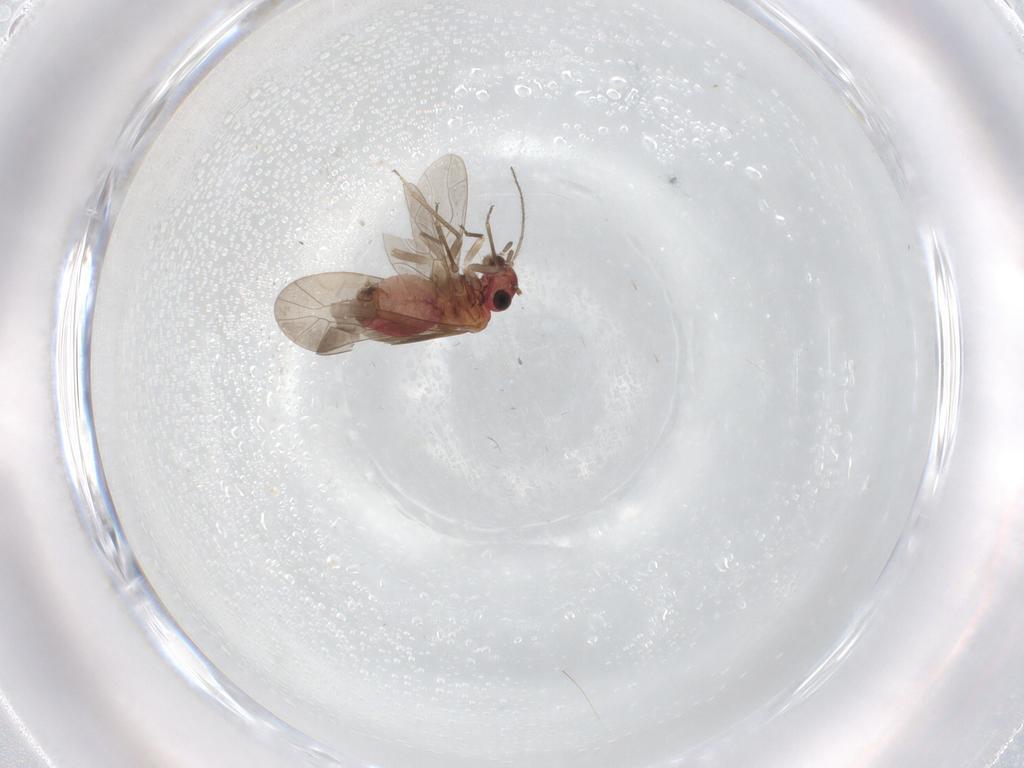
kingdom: Animalia
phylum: Arthropoda
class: Insecta
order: Psocodea
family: Lachesillidae
